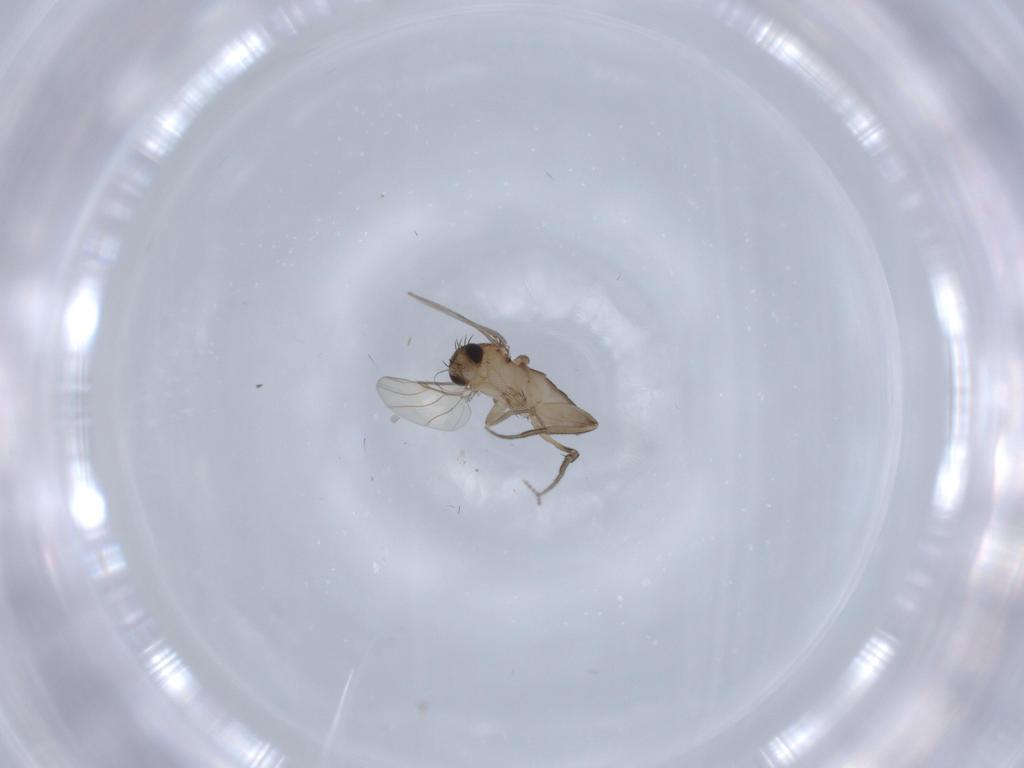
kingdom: Animalia
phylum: Arthropoda
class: Insecta
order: Diptera
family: Sciaridae
